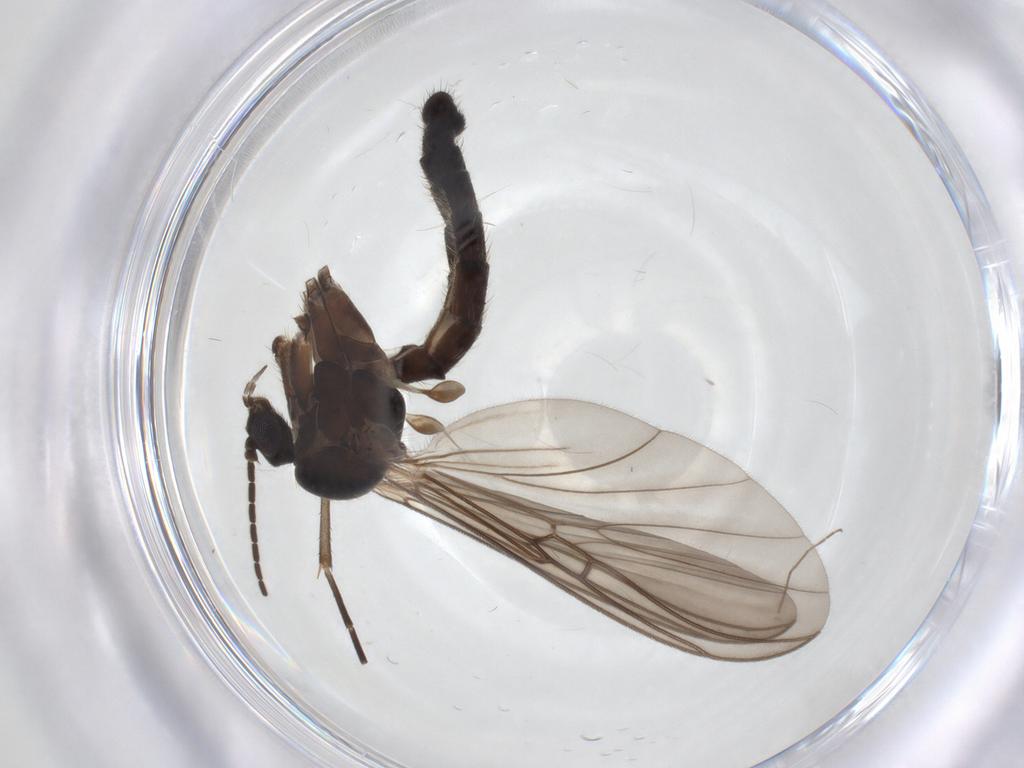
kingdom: Animalia
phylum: Arthropoda
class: Insecta
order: Diptera
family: Mycetophilidae
